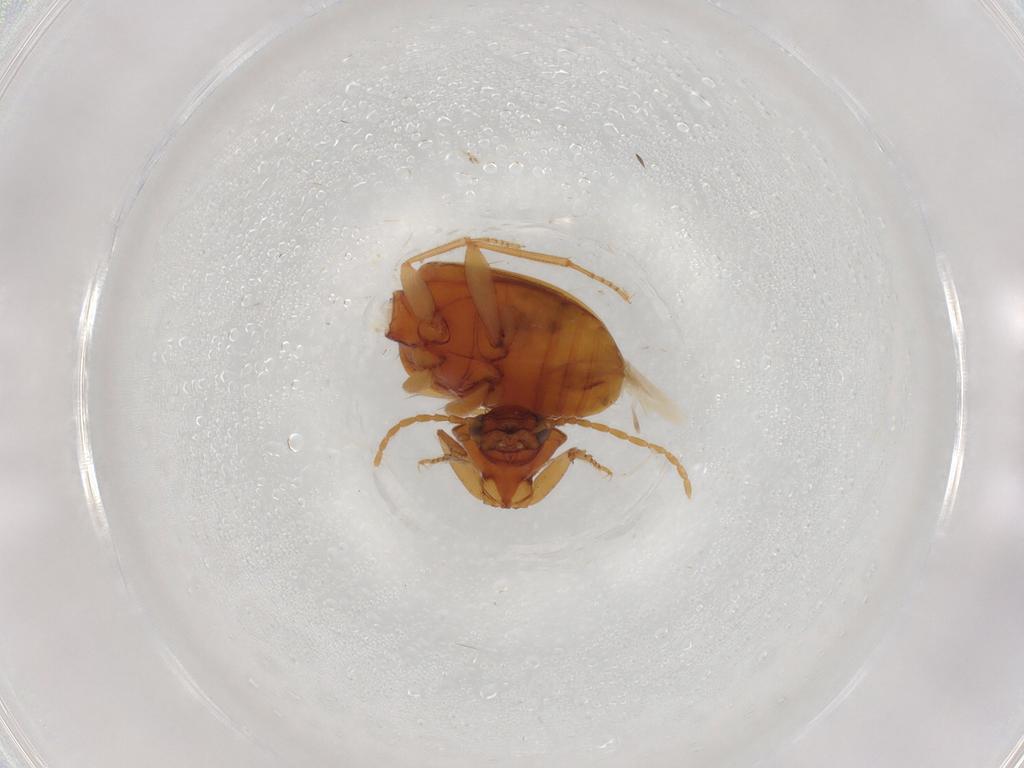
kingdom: Animalia
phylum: Arthropoda
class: Insecta
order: Coleoptera
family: Carabidae
